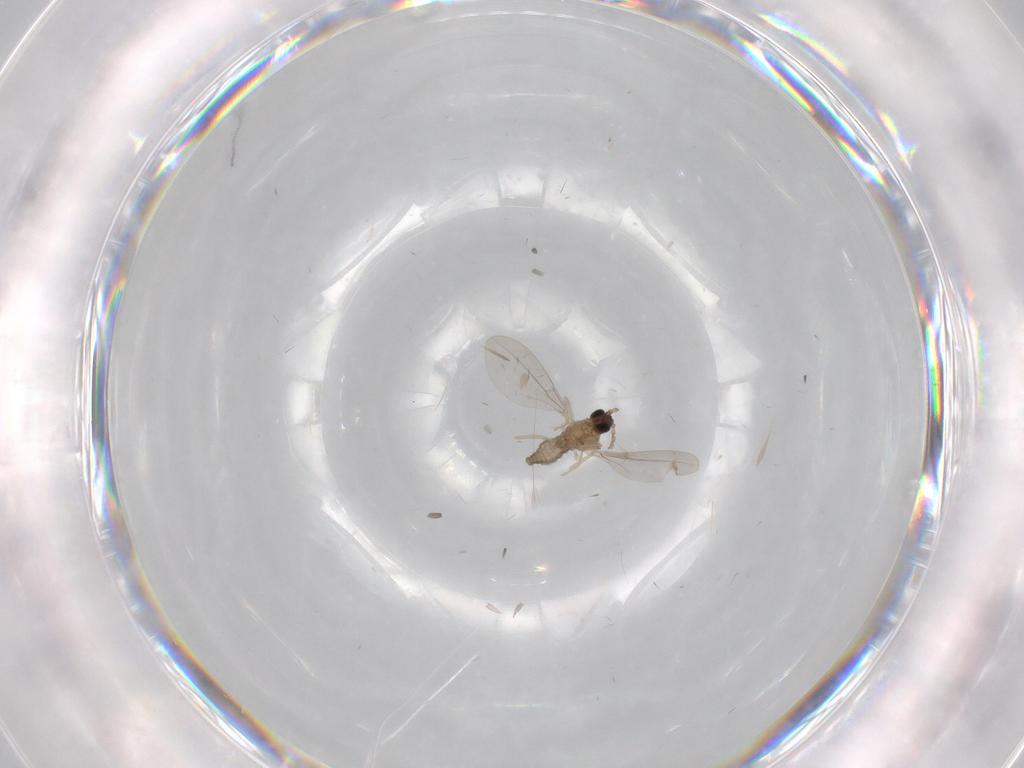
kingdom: Animalia
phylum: Arthropoda
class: Insecta
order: Diptera
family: Cecidomyiidae
